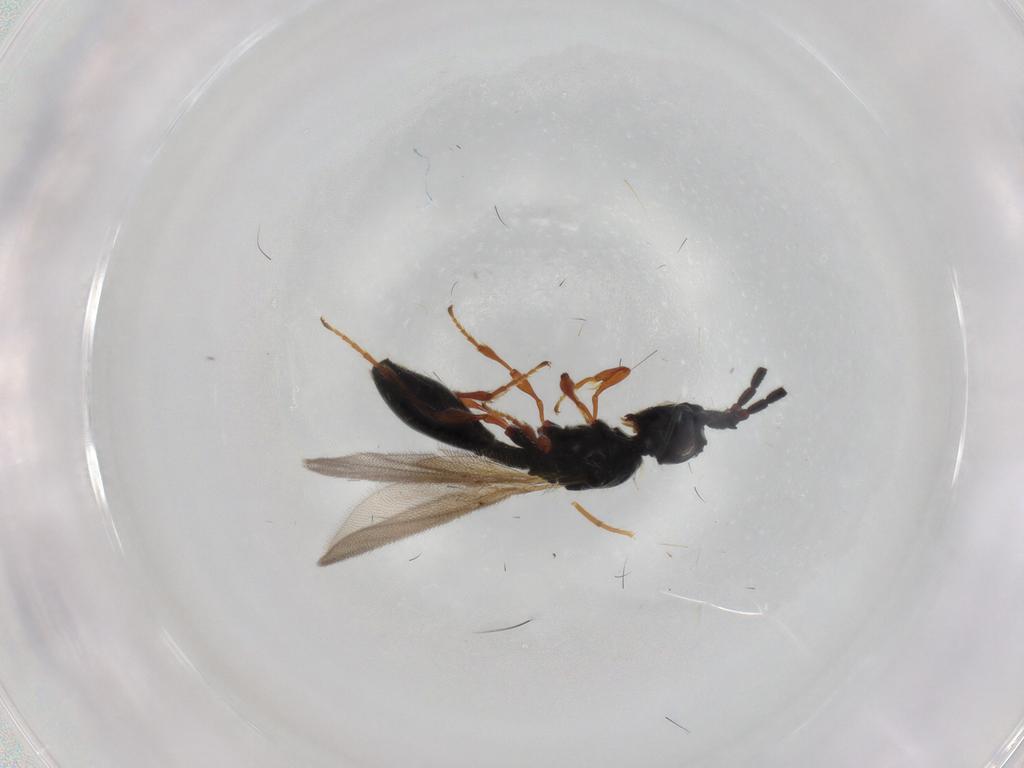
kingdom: Animalia
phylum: Arthropoda
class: Insecta
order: Hymenoptera
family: Diapriidae
